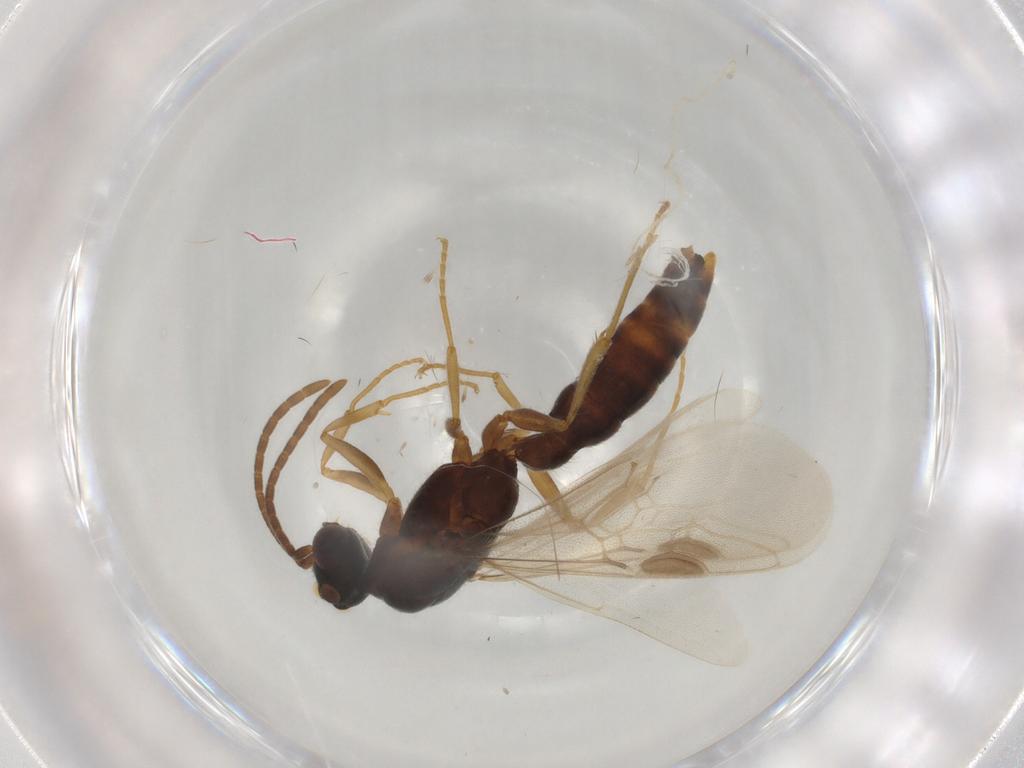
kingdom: Animalia
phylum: Arthropoda
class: Insecta
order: Hymenoptera
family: Formicidae
